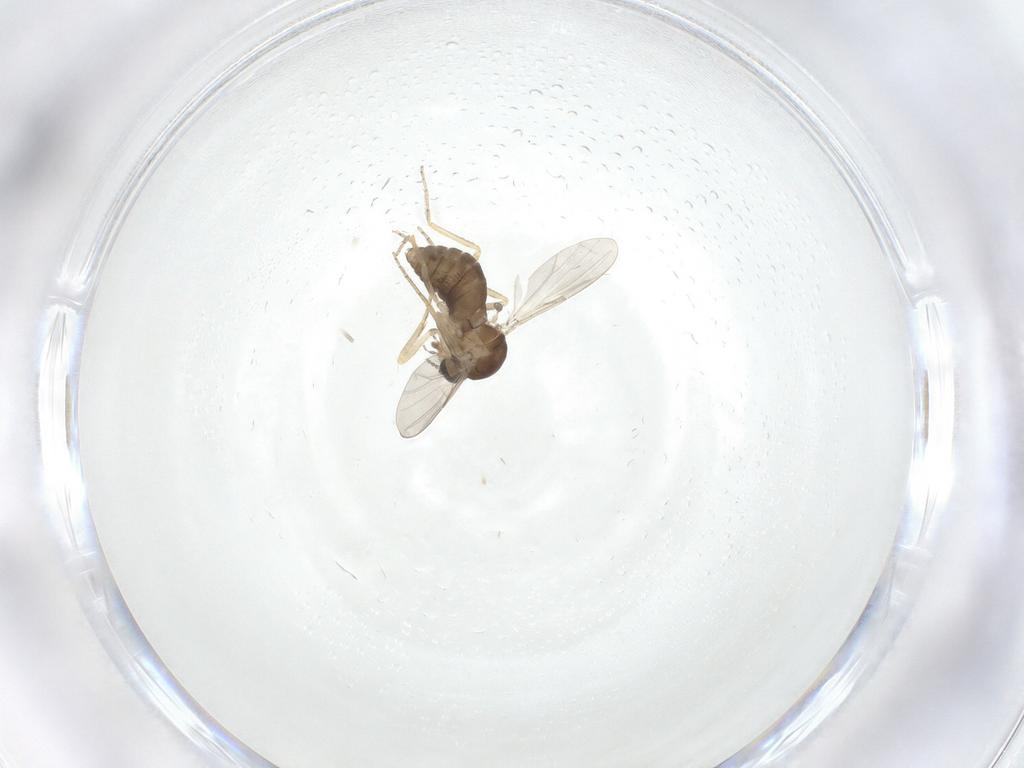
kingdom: Animalia
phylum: Arthropoda
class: Insecta
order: Diptera
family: Ceratopogonidae
